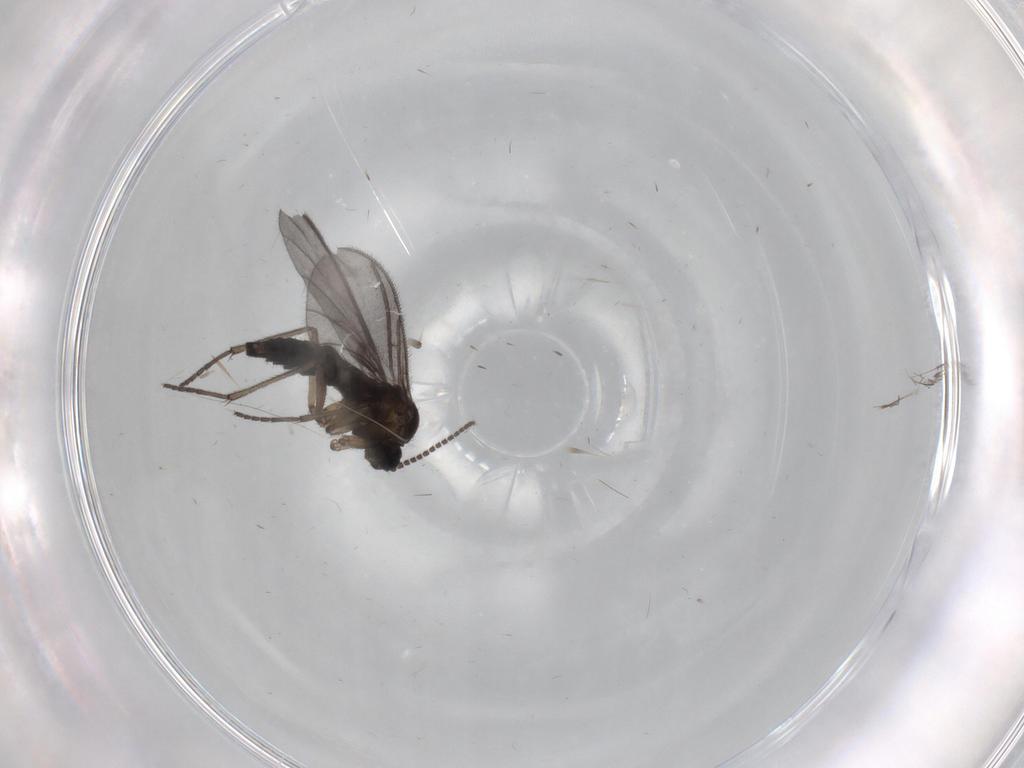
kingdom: Animalia
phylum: Arthropoda
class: Insecta
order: Diptera
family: Sciaridae
